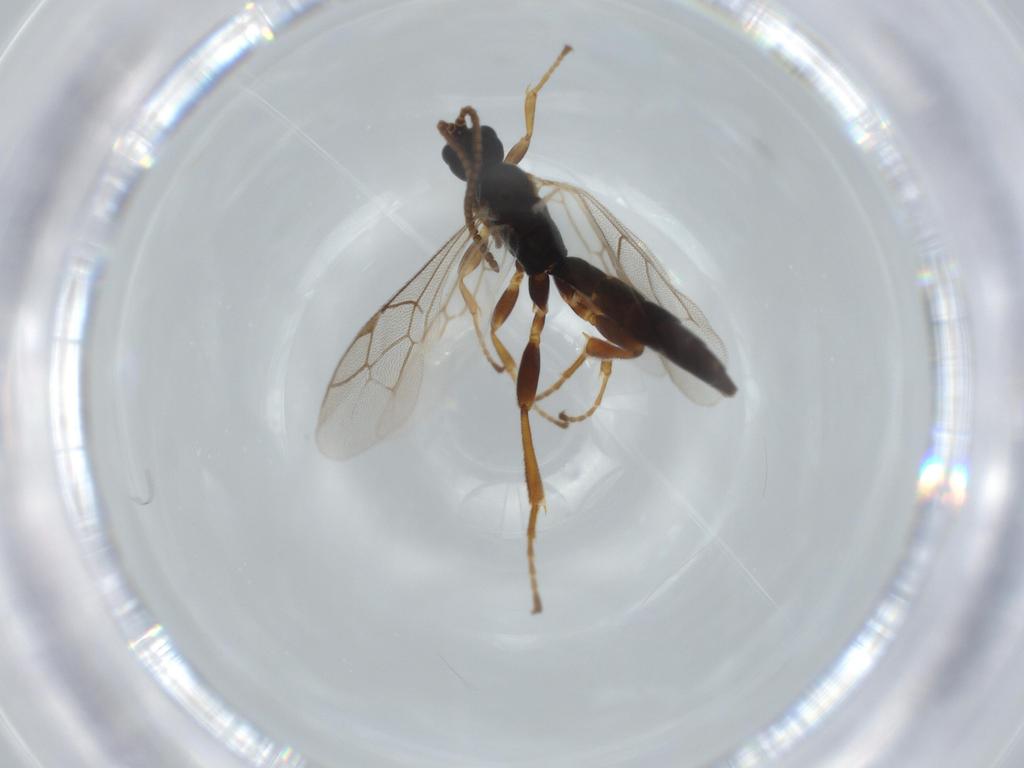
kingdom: Animalia
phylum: Arthropoda
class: Insecta
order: Hymenoptera
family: Ichneumonidae
